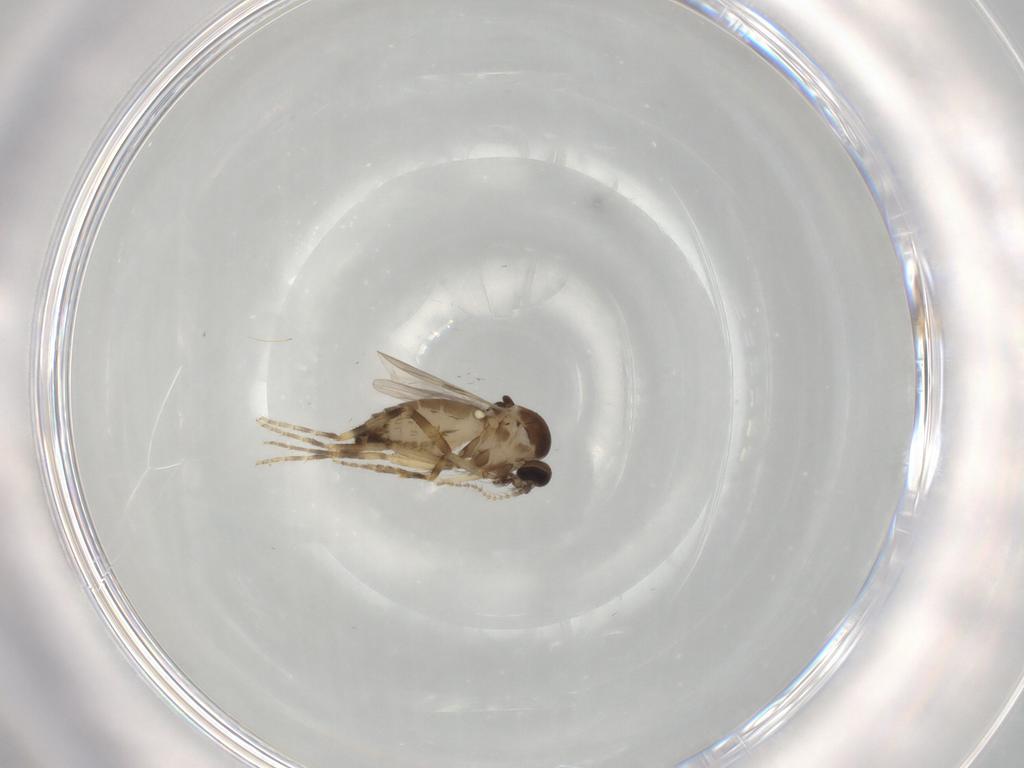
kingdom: Animalia
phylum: Arthropoda
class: Insecta
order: Diptera
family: Ceratopogonidae
